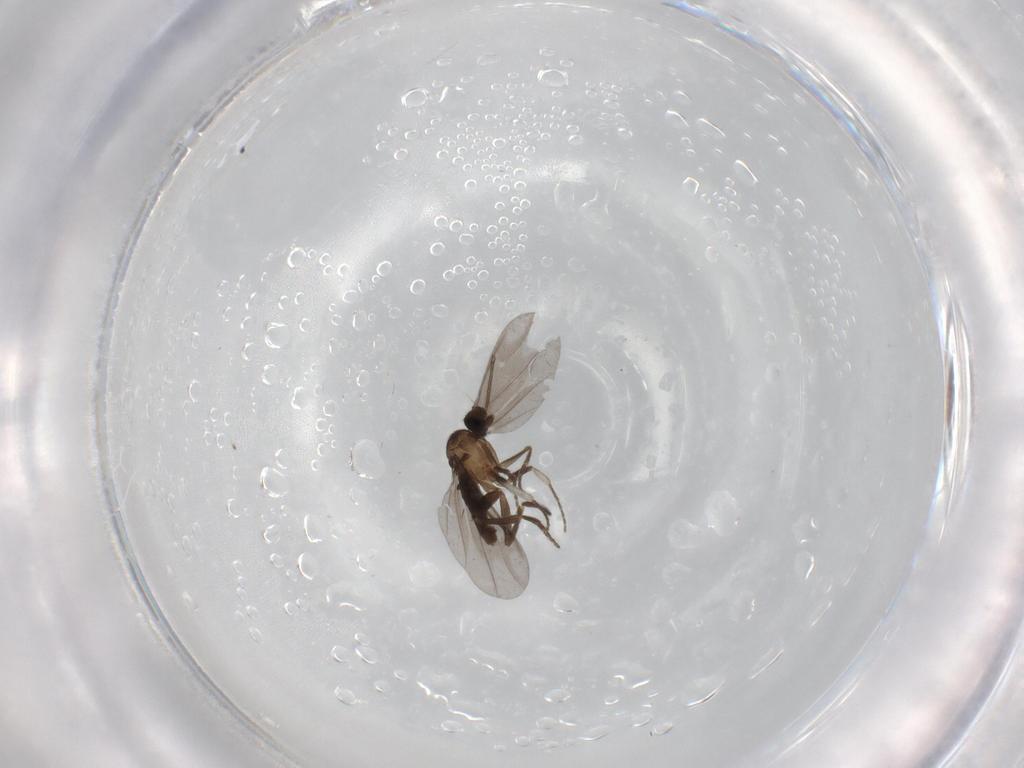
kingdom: Animalia
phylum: Arthropoda
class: Insecta
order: Diptera
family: Phoridae
